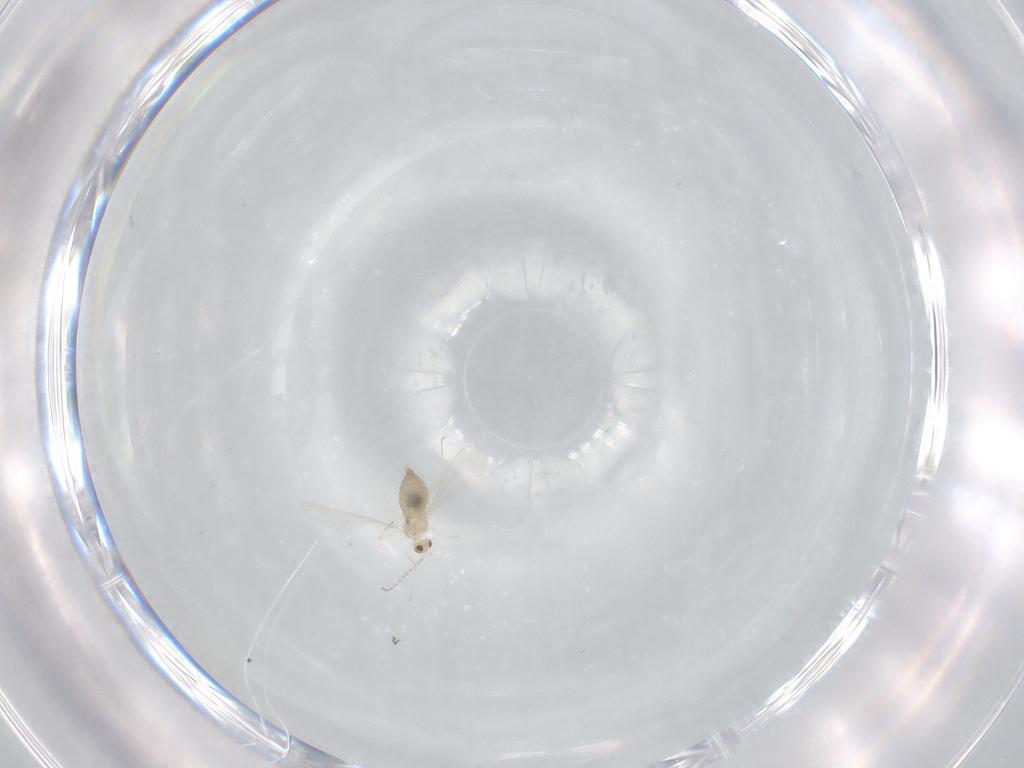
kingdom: Animalia
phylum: Arthropoda
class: Insecta
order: Diptera
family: Cecidomyiidae
